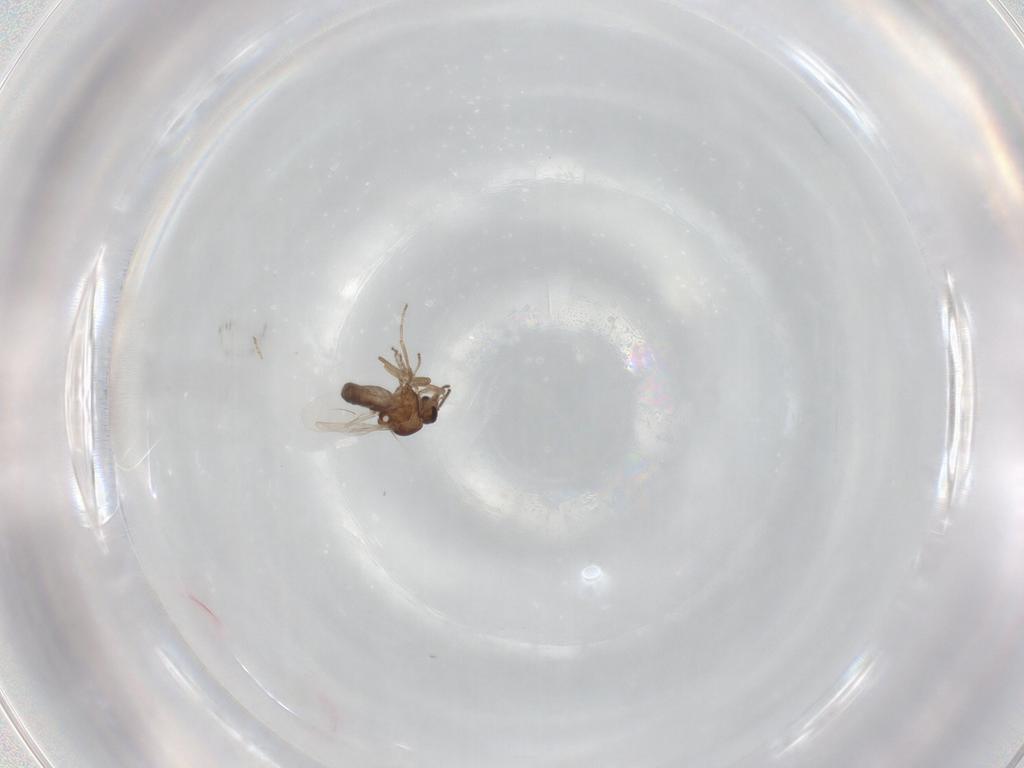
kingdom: Animalia
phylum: Arthropoda
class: Insecta
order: Diptera
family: Ceratopogonidae
